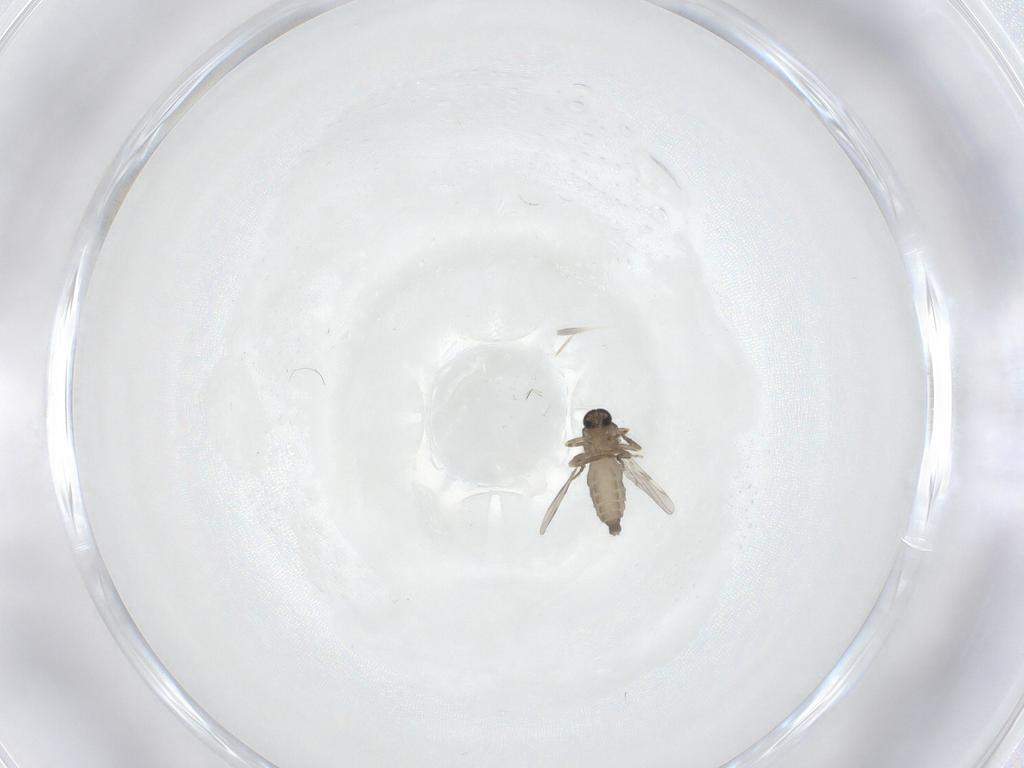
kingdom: Animalia
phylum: Arthropoda
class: Insecta
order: Diptera
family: Ceratopogonidae
